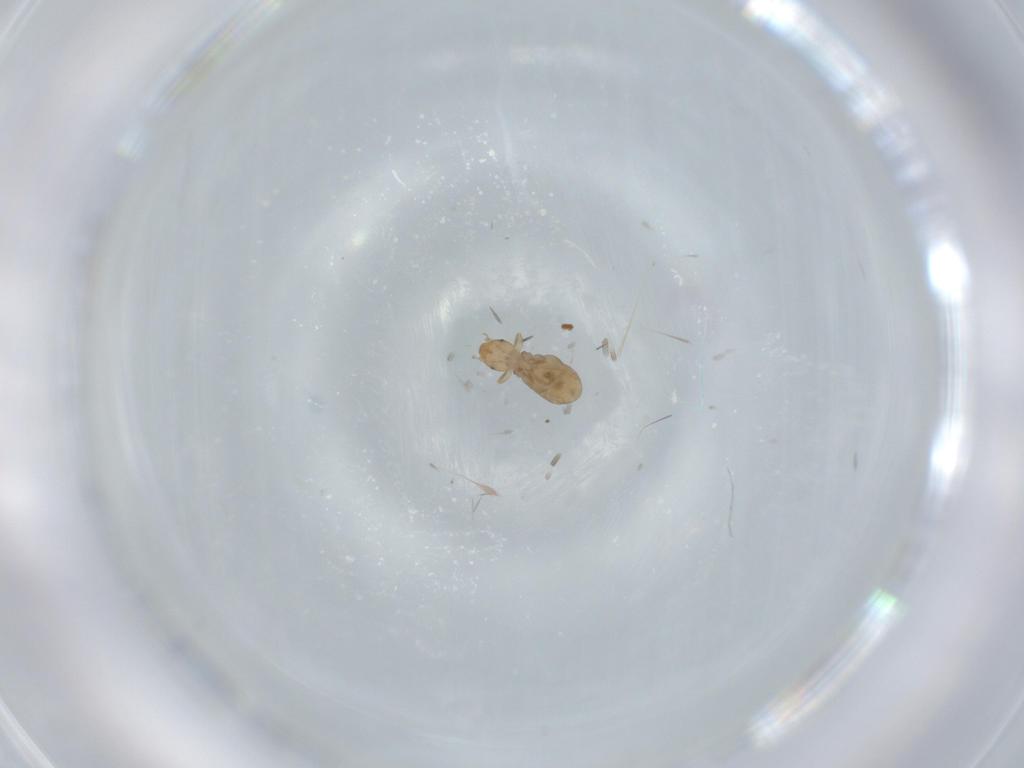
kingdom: Animalia
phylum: Arthropoda
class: Insecta
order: Psocodea
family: Liposcelididae
